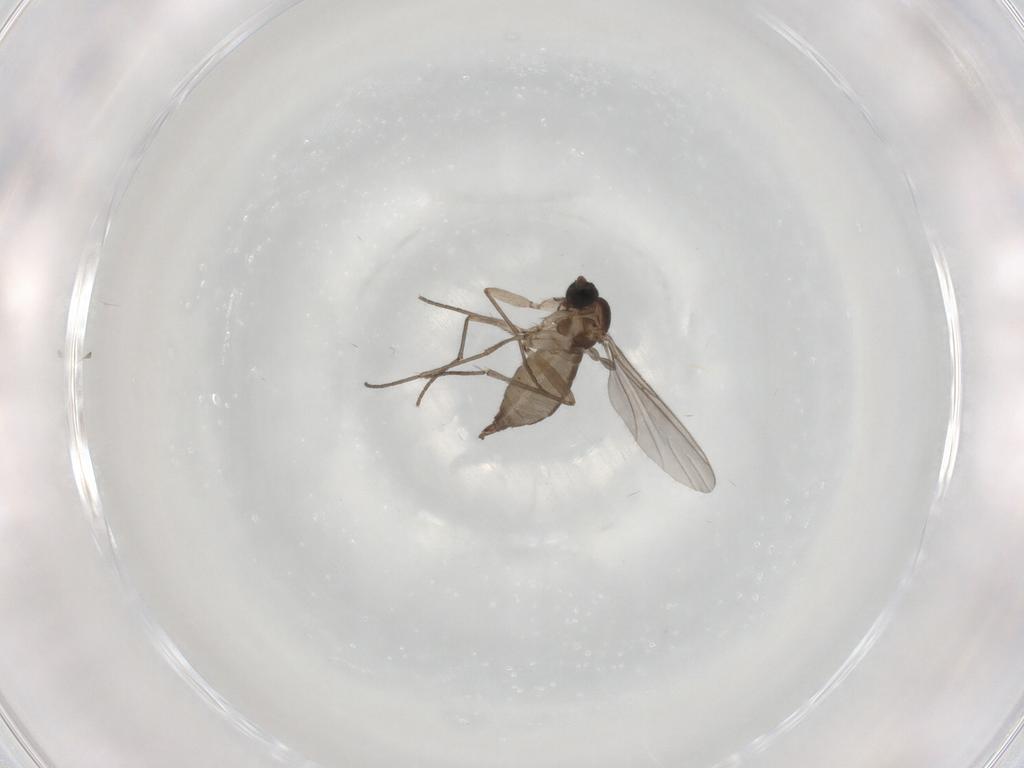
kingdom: Animalia
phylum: Arthropoda
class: Insecta
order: Diptera
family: Sciaridae
